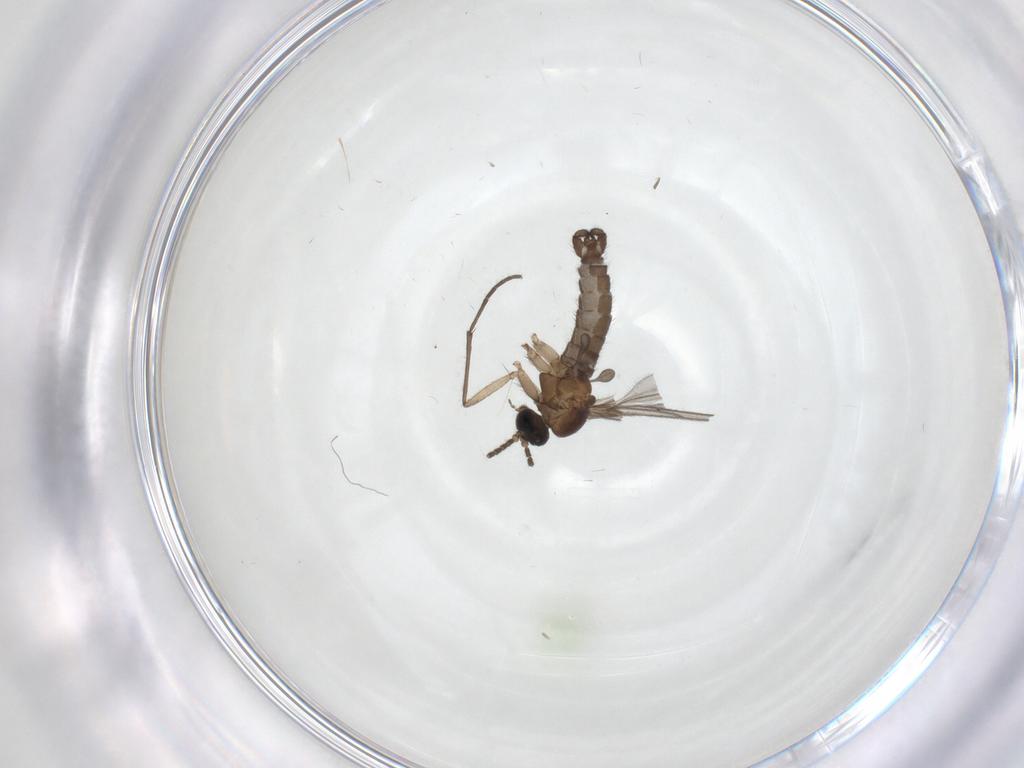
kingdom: Animalia
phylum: Arthropoda
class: Insecta
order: Diptera
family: Sciaridae
